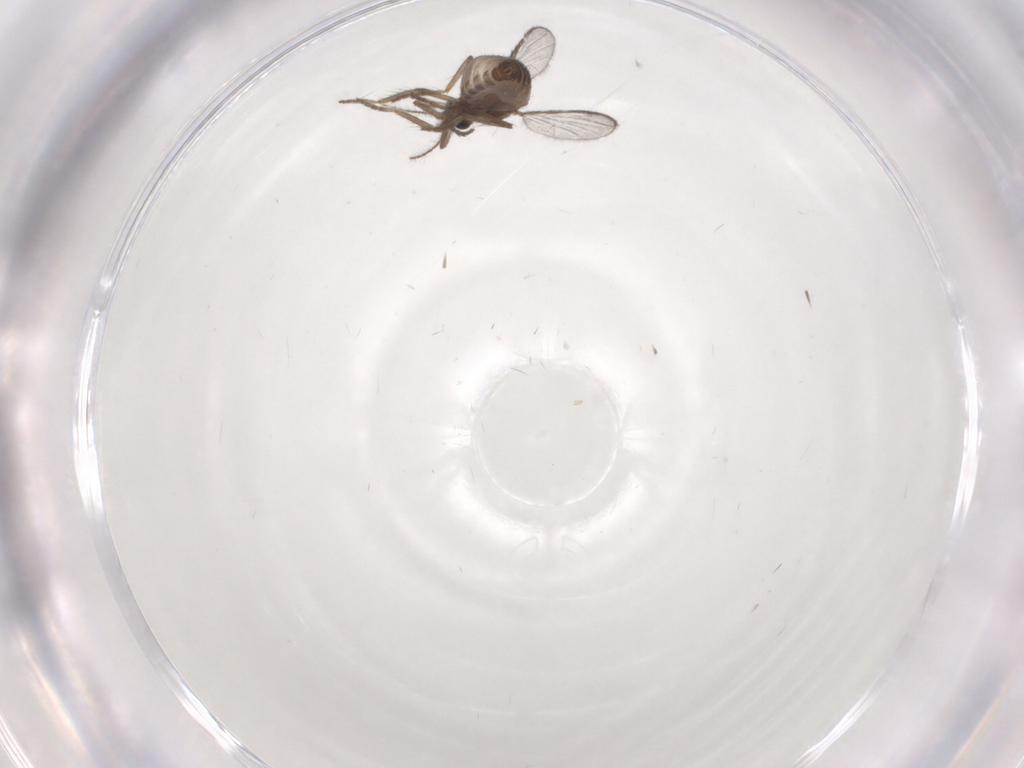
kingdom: Animalia
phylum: Arthropoda
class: Insecta
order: Diptera
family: Ceratopogonidae
